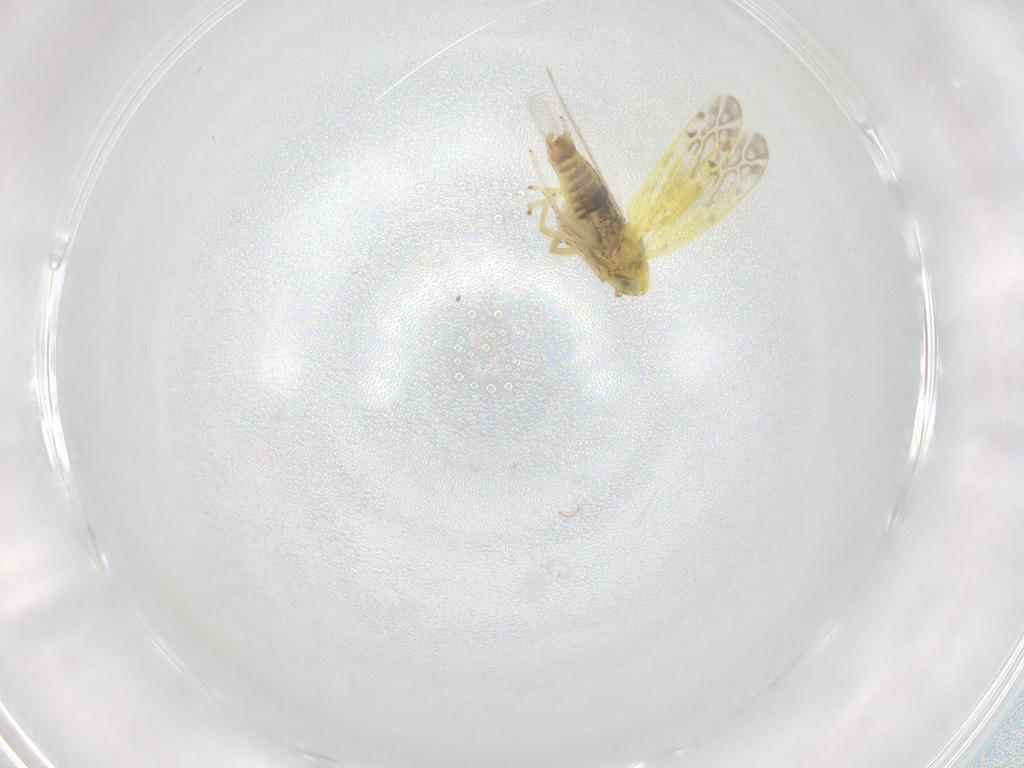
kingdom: Animalia
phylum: Arthropoda
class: Insecta
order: Hemiptera
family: Cicadellidae
